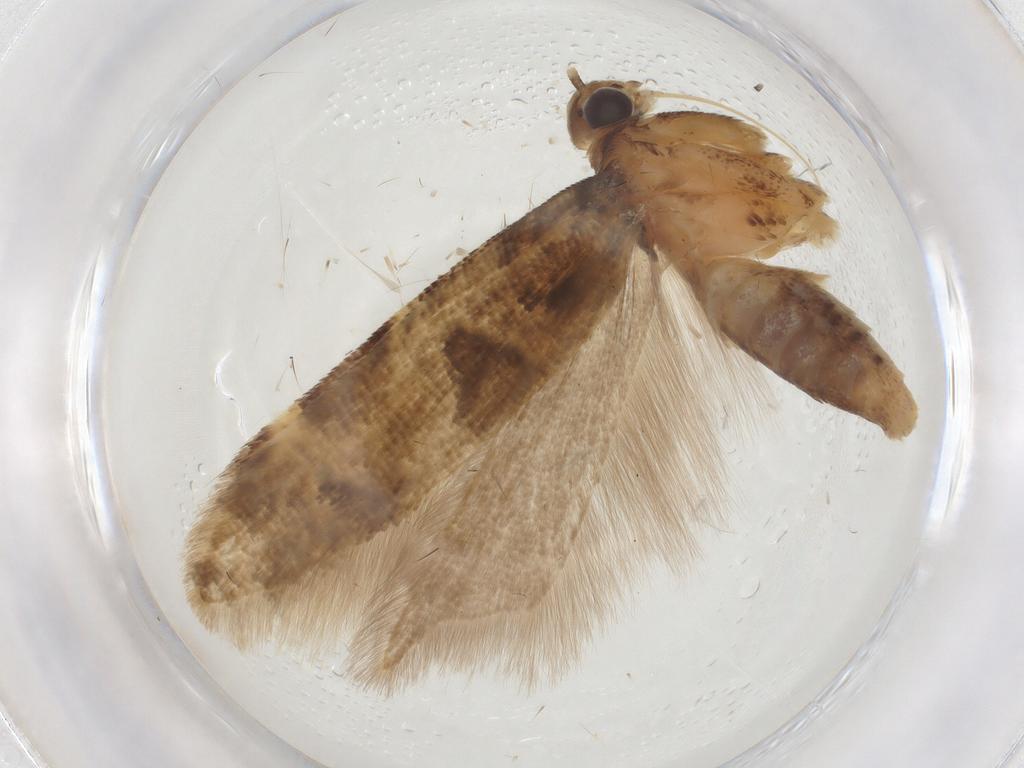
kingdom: Animalia
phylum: Arthropoda
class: Insecta
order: Lepidoptera
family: Gelechiidae
